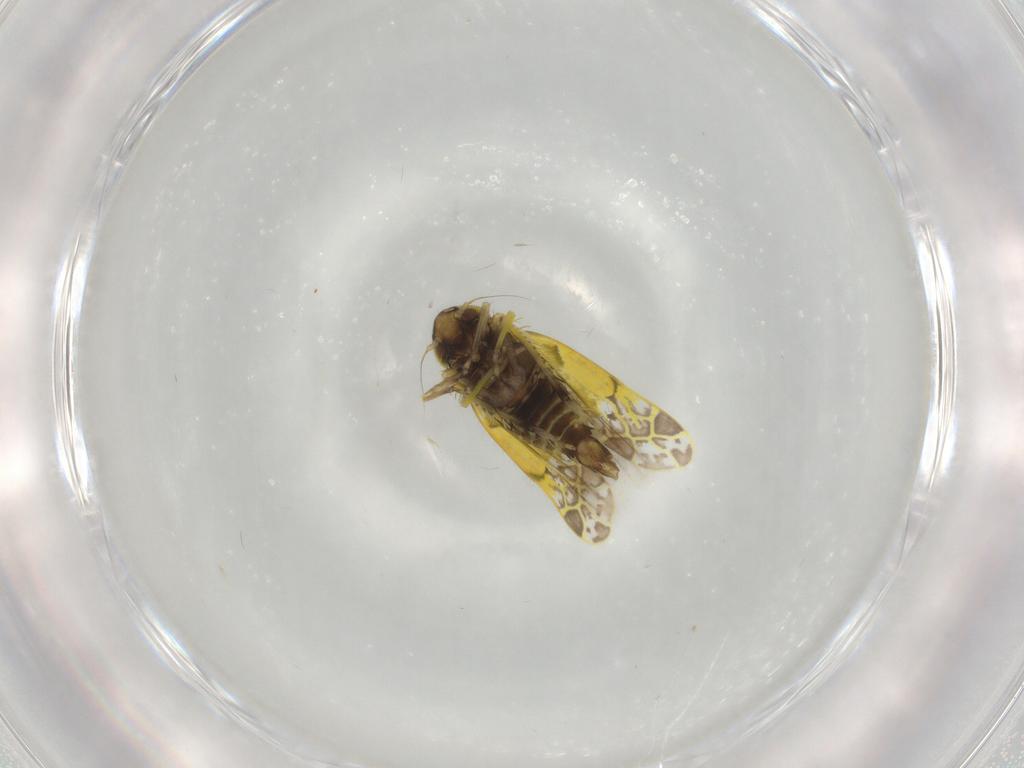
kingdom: Animalia
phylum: Arthropoda
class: Insecta
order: Hemiptera
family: Cicadellidae
